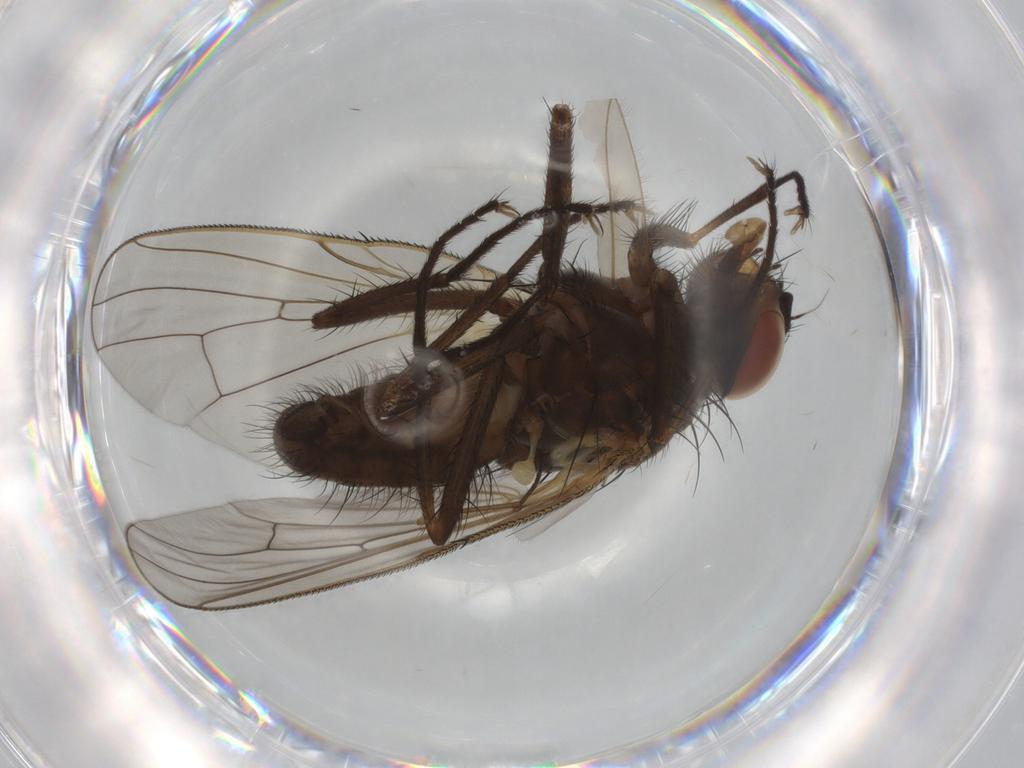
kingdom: Animalia
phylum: Arthropoda
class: Insecta
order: Diptera
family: Anthomyiidae
